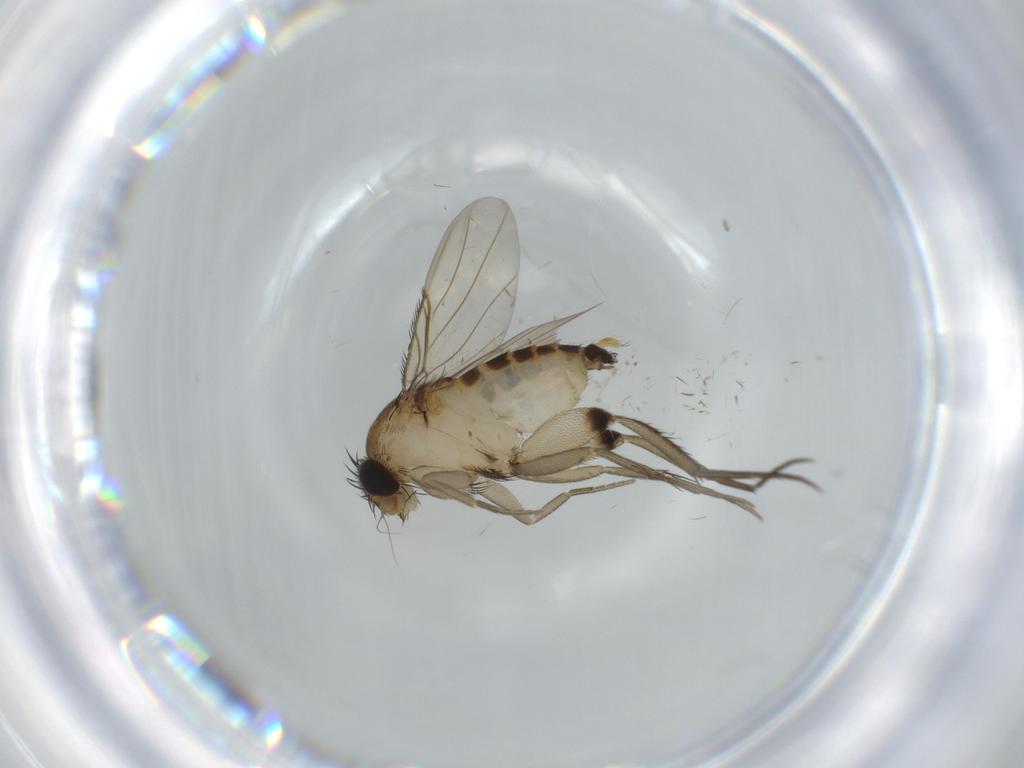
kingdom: Animalia
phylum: Arthropoda
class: Insecta
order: Diptera
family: Phoridae
